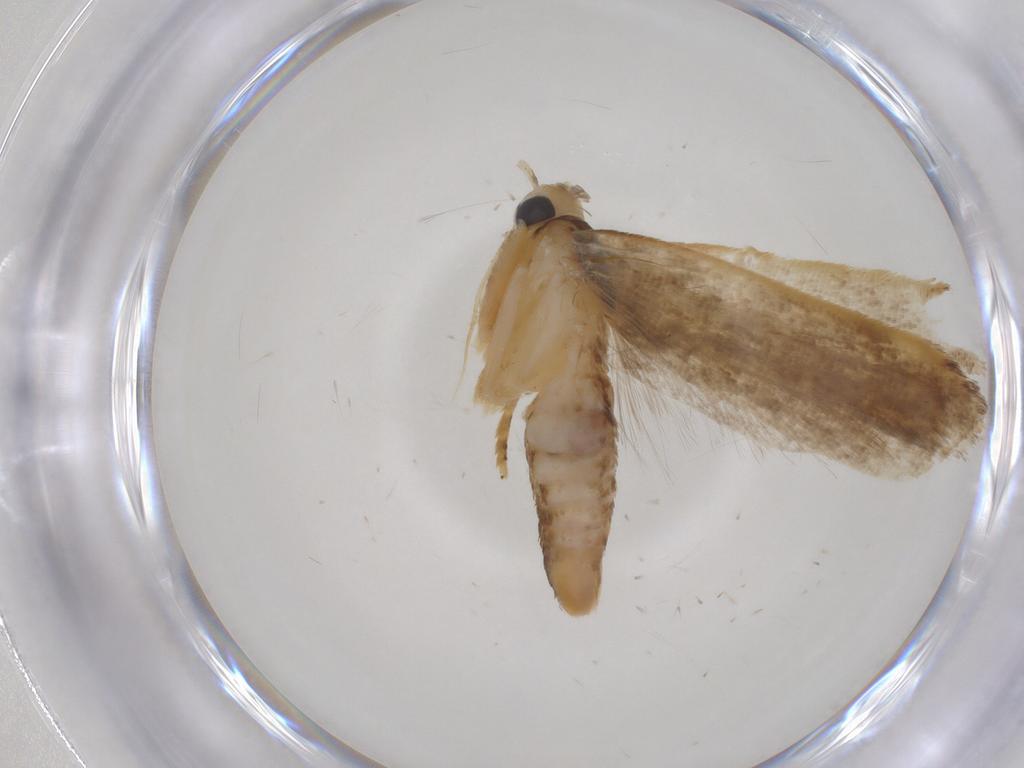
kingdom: Animalia
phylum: Arthropoda
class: Insecta
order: Lepidoptera
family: Gelechiidae
